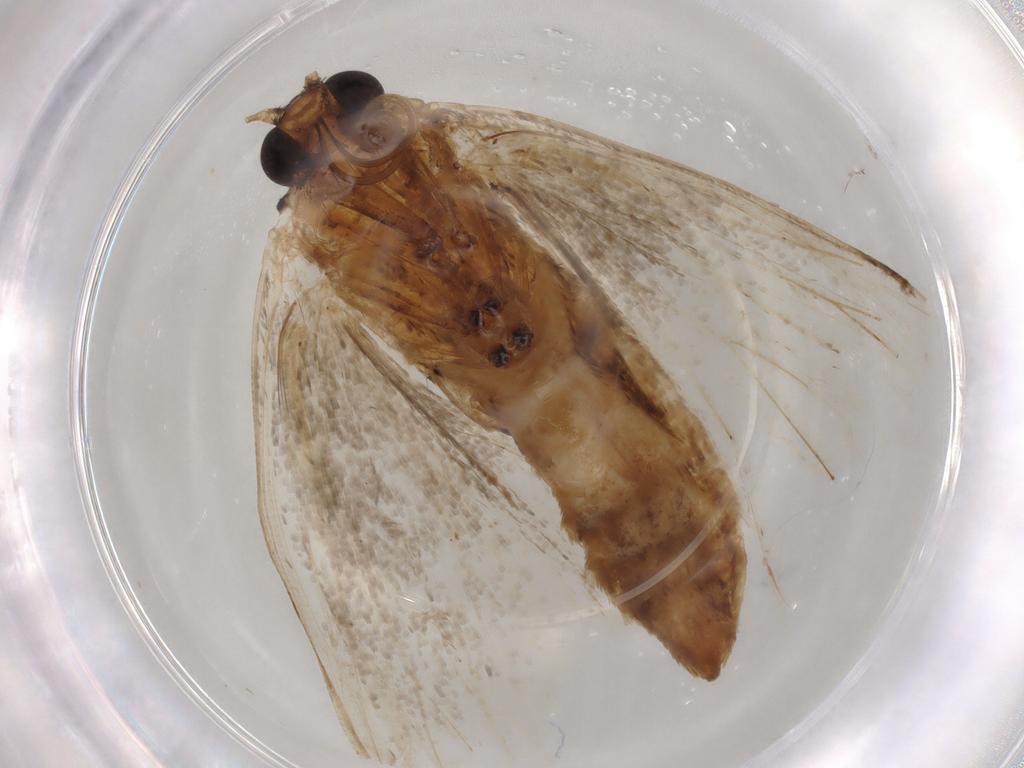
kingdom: Animalia
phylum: Arthropoda
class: Insecta
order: Lepidoptera
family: Erebidae
